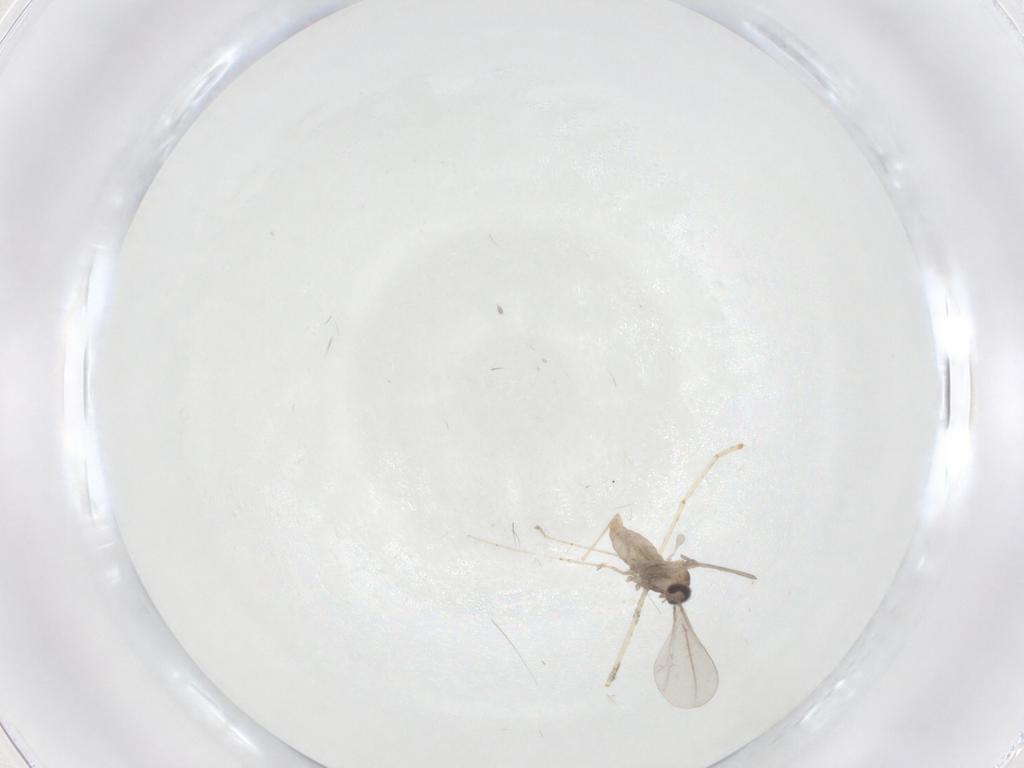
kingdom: Animalia
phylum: Arthropoda
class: Insecta
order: Diptera
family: Cecidomyiidae
